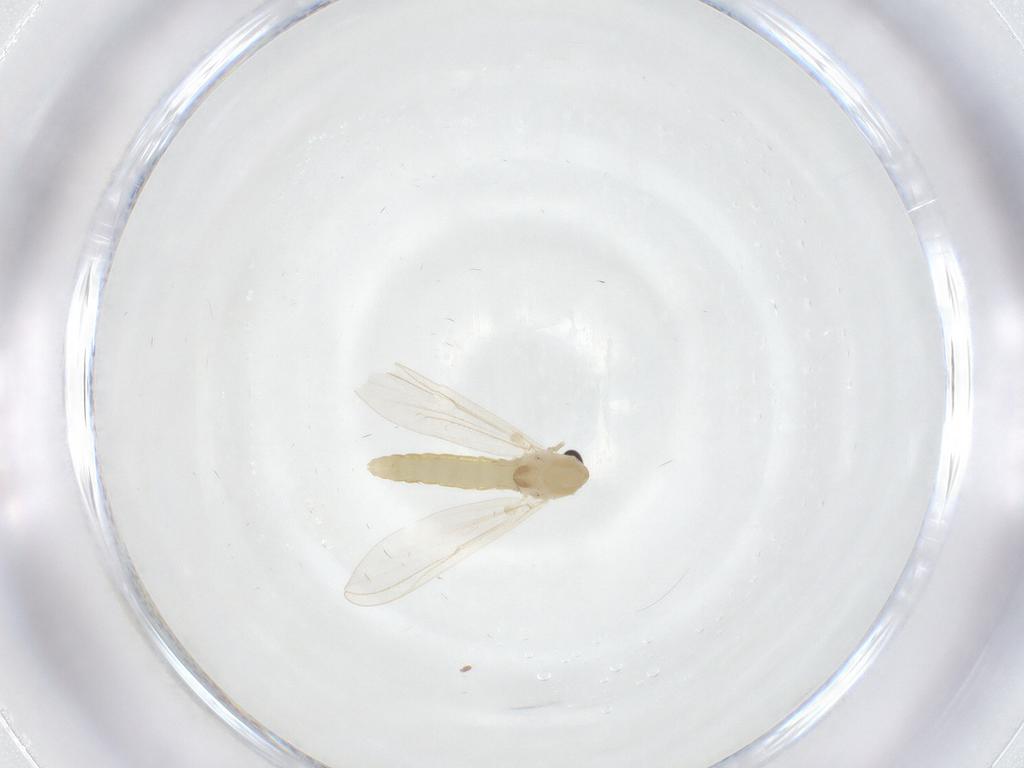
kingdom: Animalia
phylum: Arthropoda
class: Insecta
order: Diptera
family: Chironomidae
